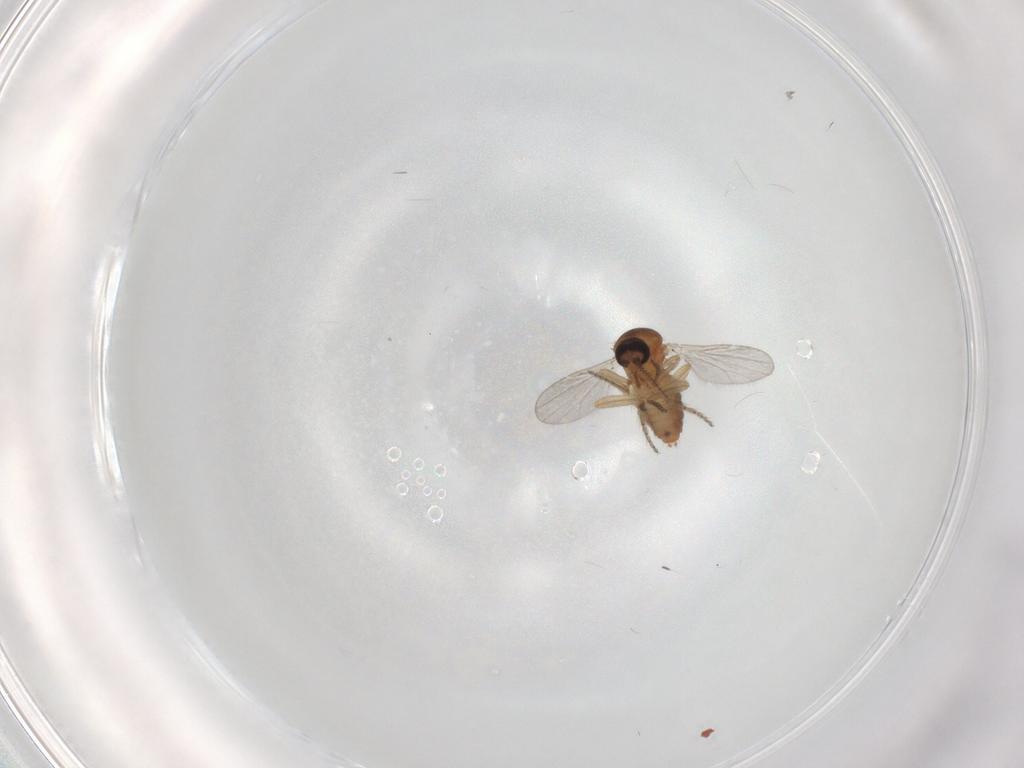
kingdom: Animalia
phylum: Arthropoda
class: Insecta
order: Diptera
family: Ceratopogonidae
